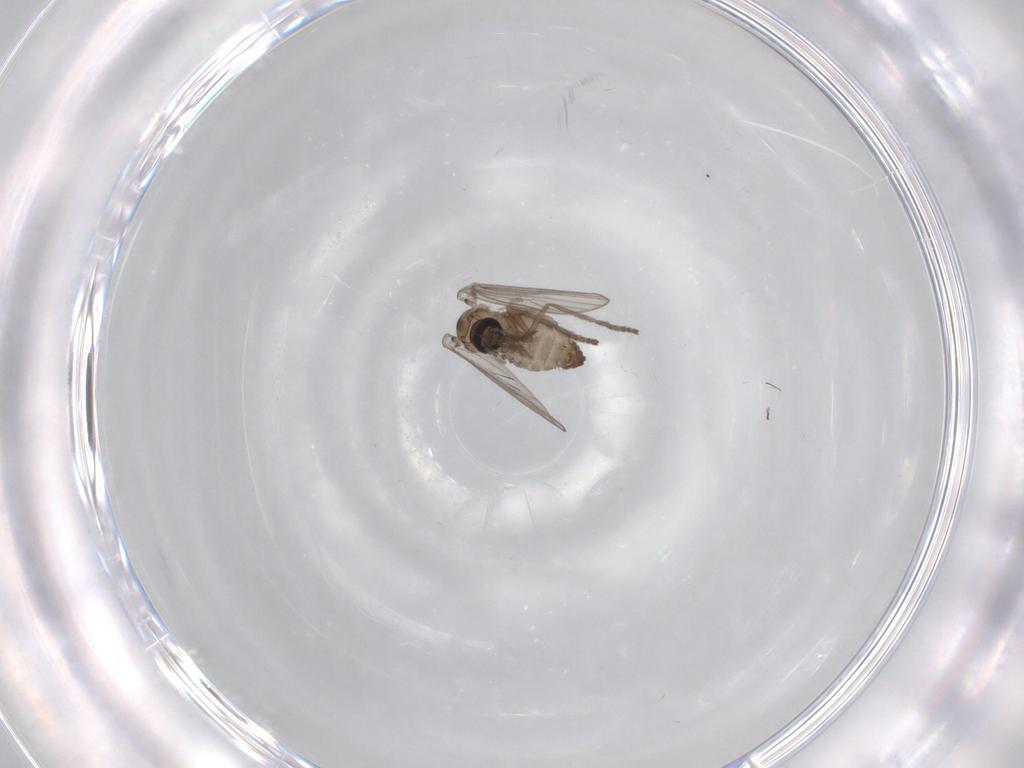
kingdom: Animalia
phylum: Arthropoda
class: Insecta
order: Diptera
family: Psychodidae
